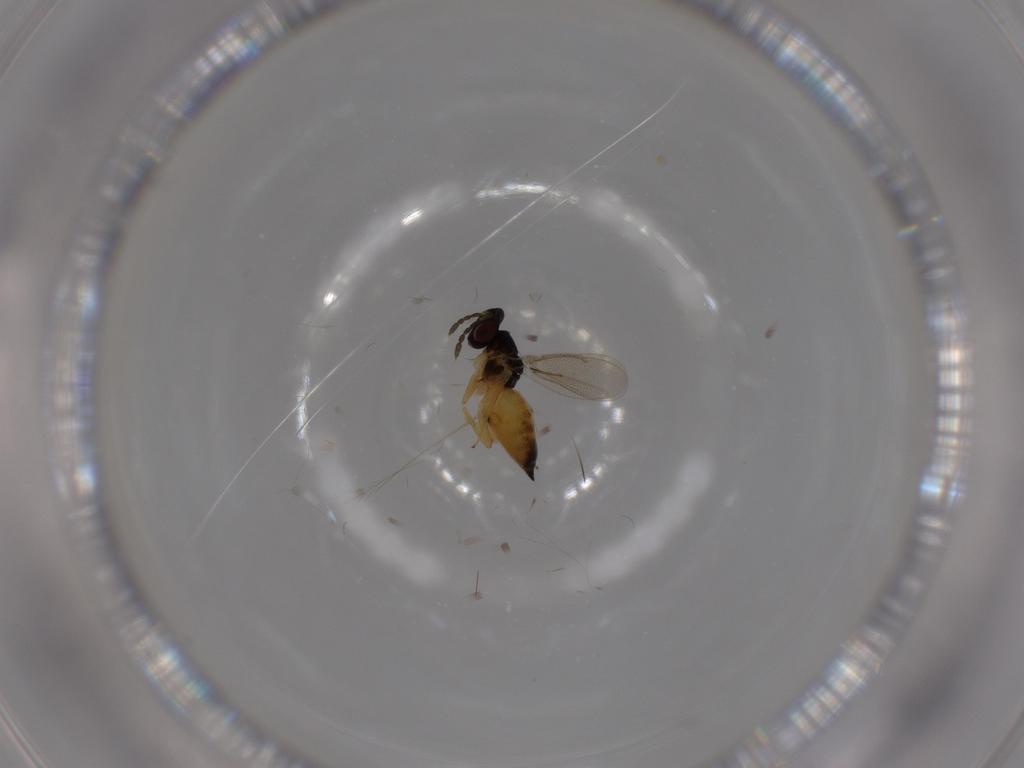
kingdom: Animalia
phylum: Arthropoda
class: Insecta
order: Hymenoptera
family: Eulophidae
